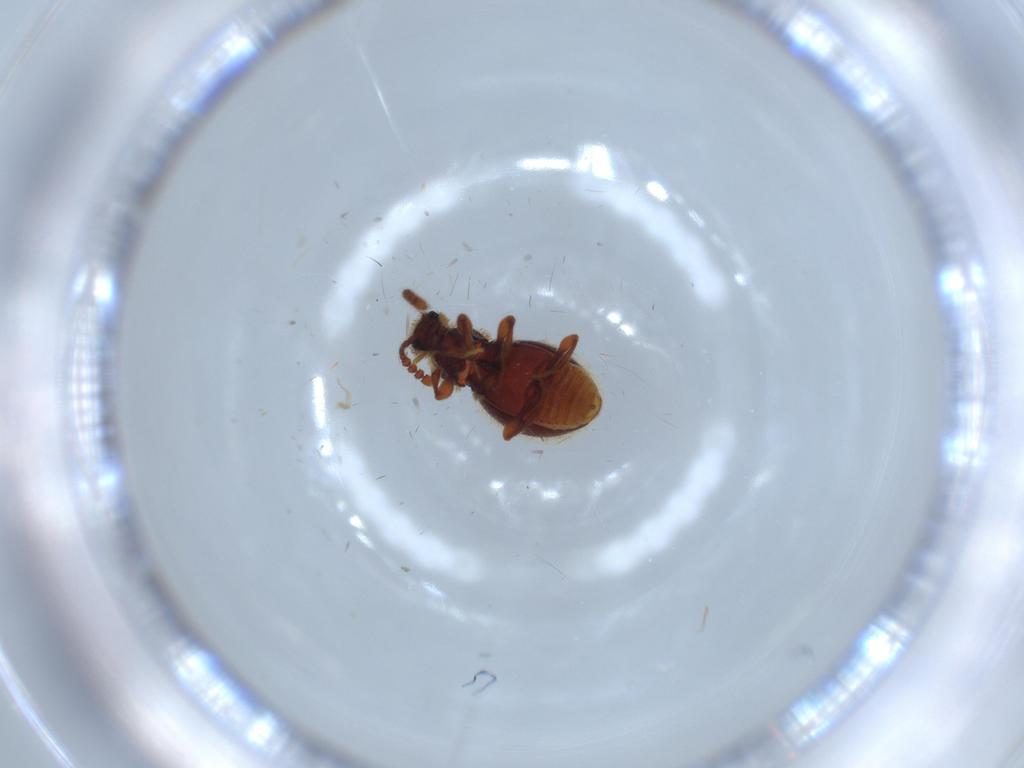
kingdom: Animalia
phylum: Arthropoda
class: Insecta
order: Coleoptera
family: Staphylinidae
